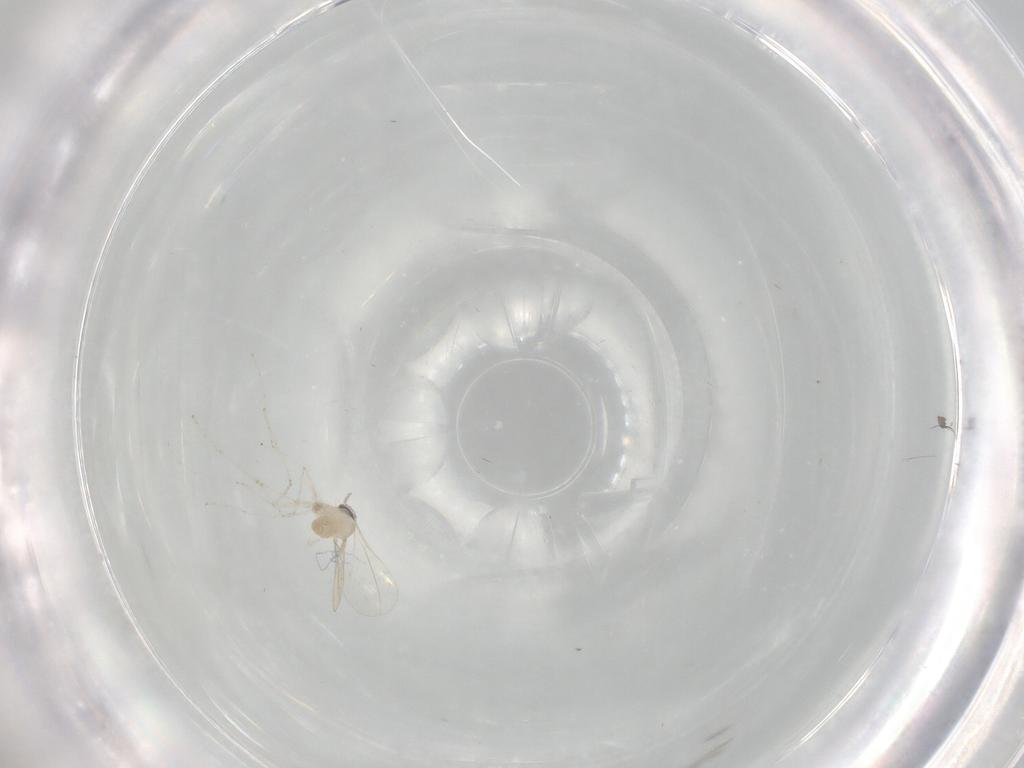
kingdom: Animalia
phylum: Arthropoda
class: Insecta
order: Diptera
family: Cecidomyiidae
